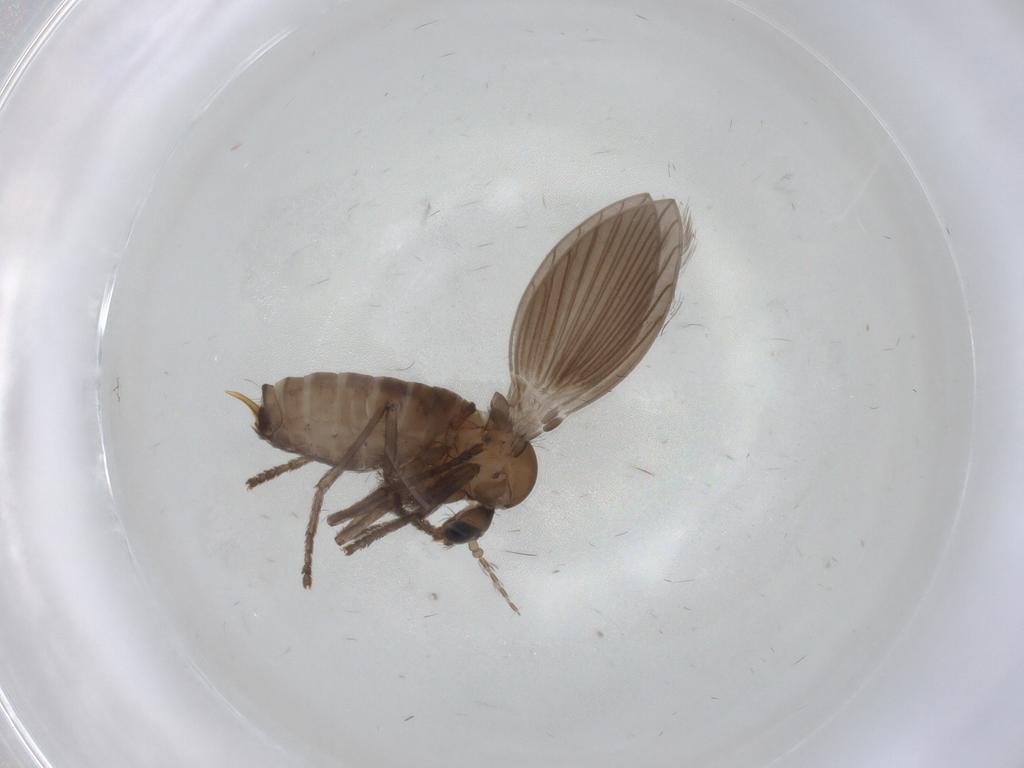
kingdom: Animalia
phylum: Arthropoda
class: Insecta
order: Diptera
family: Psychodidae
